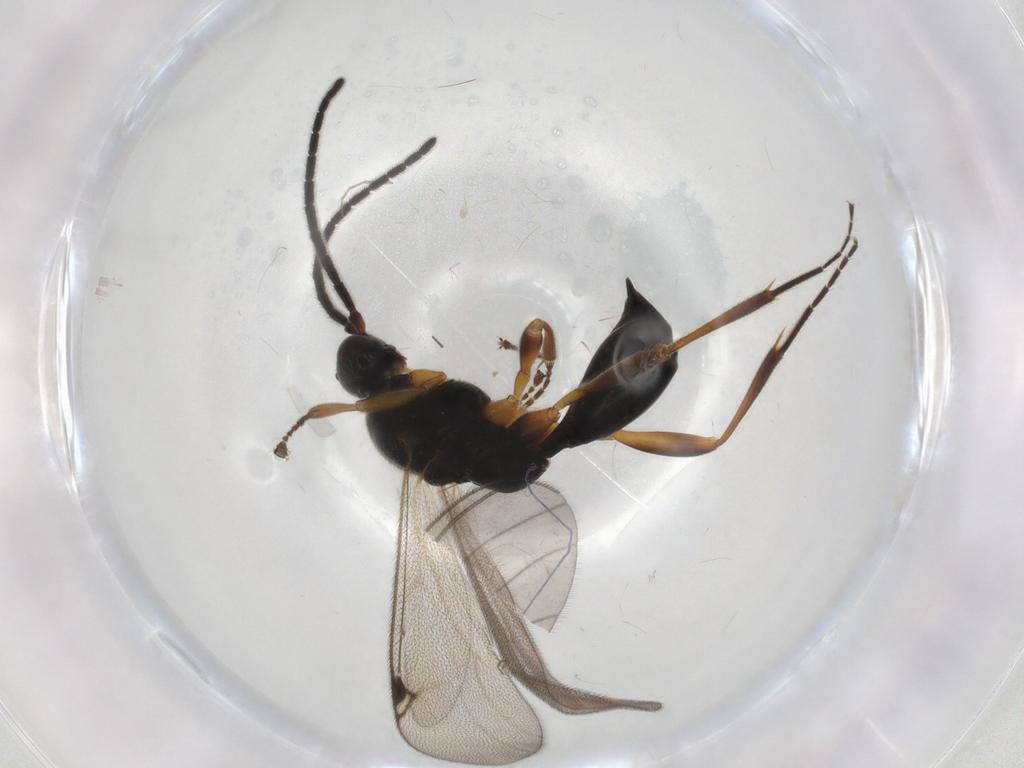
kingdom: Animalia
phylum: Arthropoda
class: Insecta
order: Hymenoptera
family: Proctotrupidae
